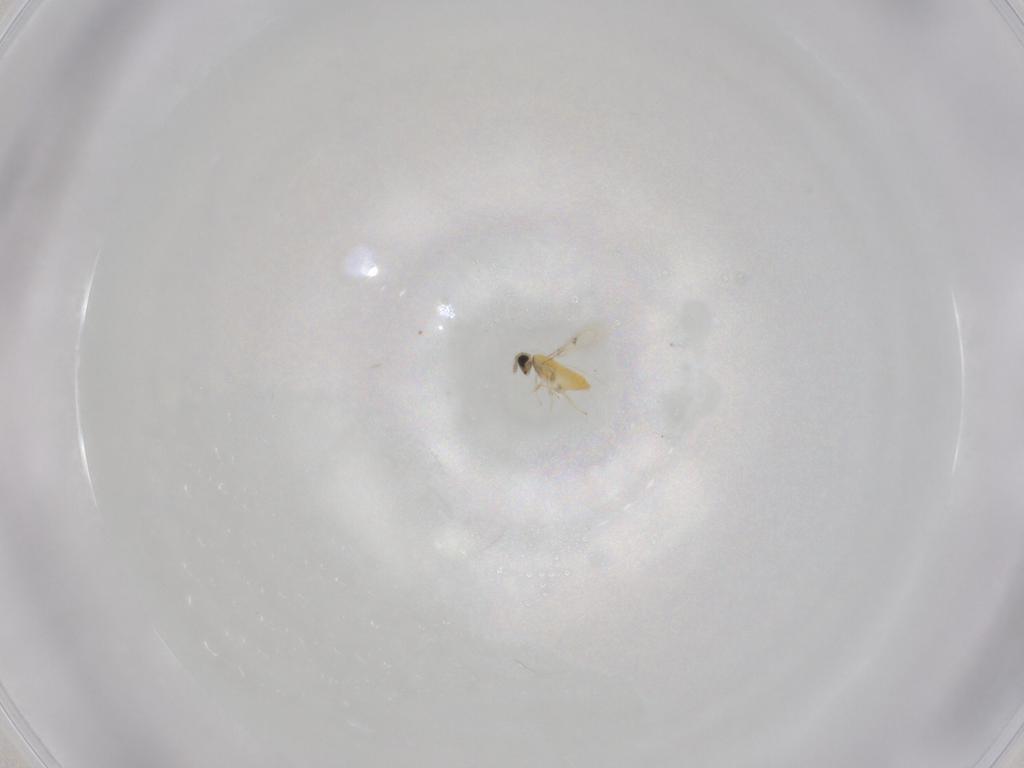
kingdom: Animalia
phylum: Arthropoda
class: Insecta
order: Hymenoptera
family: Trichogrammatidae
